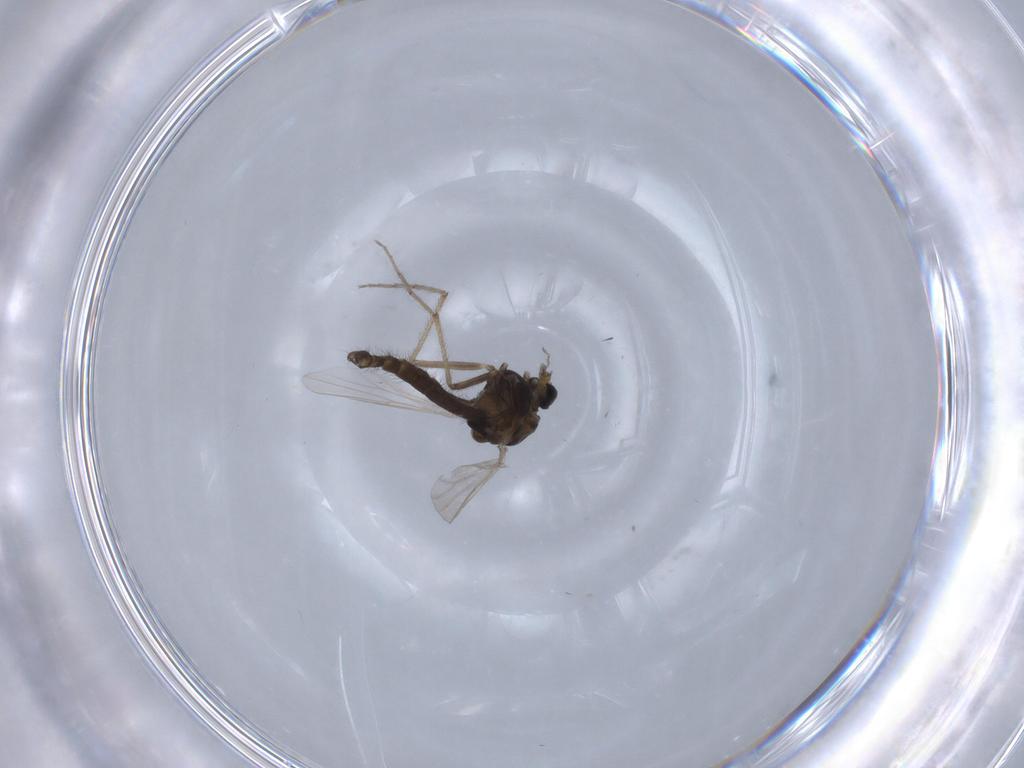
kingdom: Animalia
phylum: Arthropoda
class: Insecta
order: Diptera
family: Chironomidae
